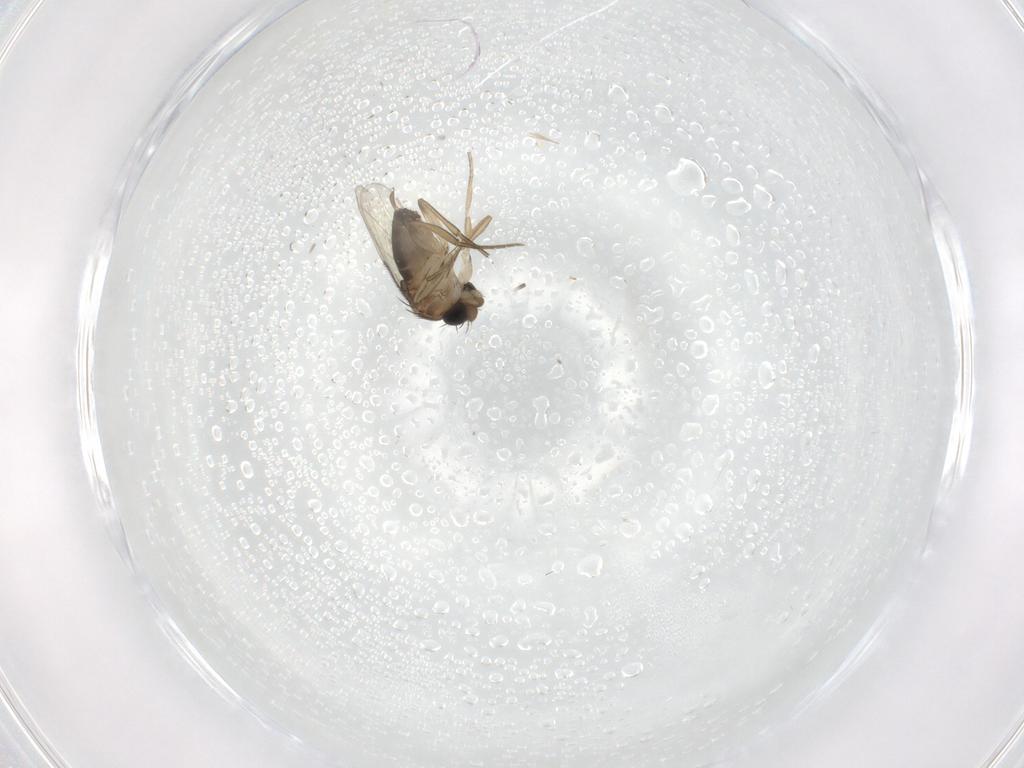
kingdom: Animalia
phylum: Arthropoda
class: Insecta
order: Diptera
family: Phoridae
